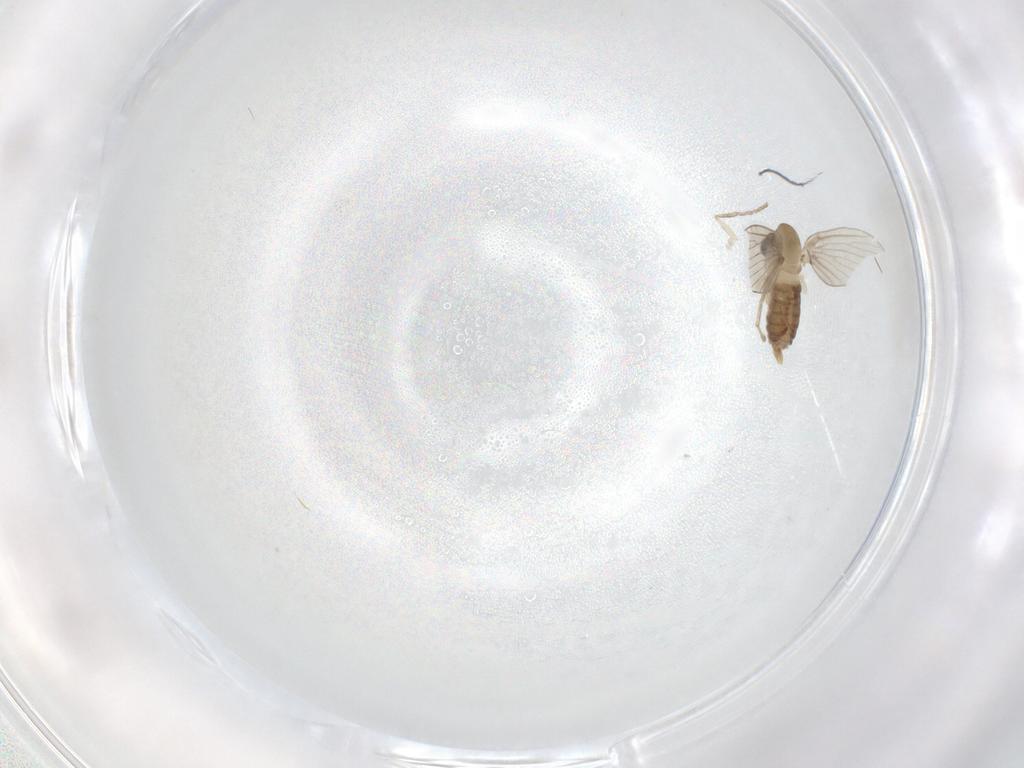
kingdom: Animalia
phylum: Arthropoda
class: Insecta
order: Diptera
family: Psychodidae
